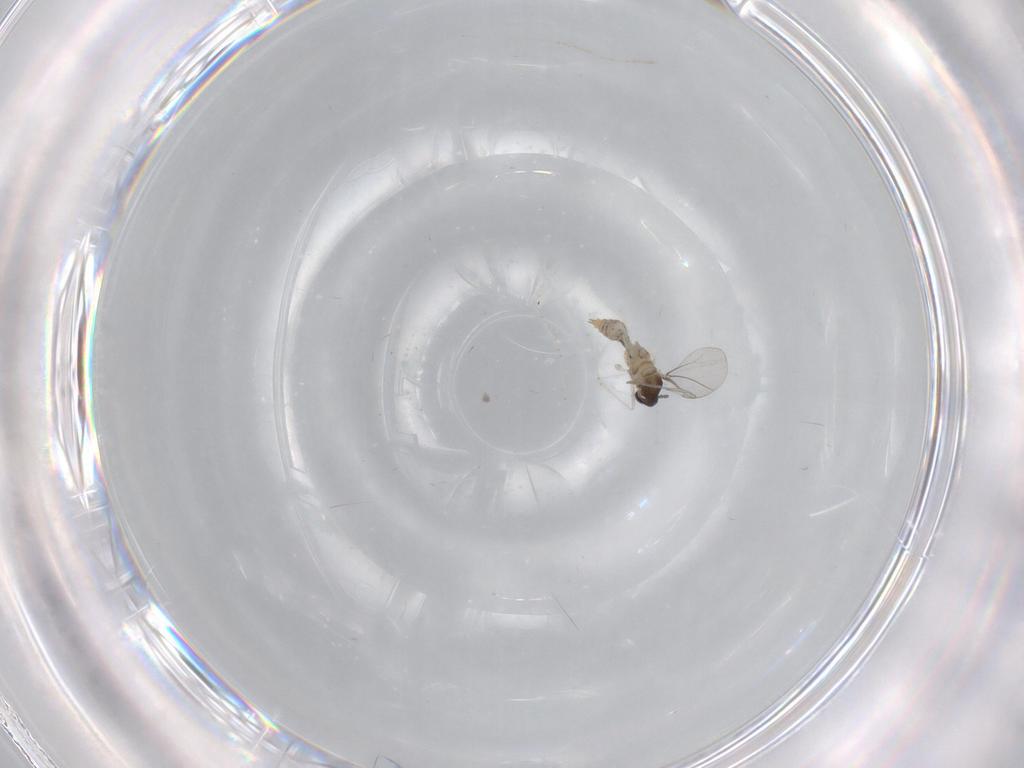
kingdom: Animalia
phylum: Arthropoda
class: Insecta
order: Diptera
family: Cecidomyiidae
